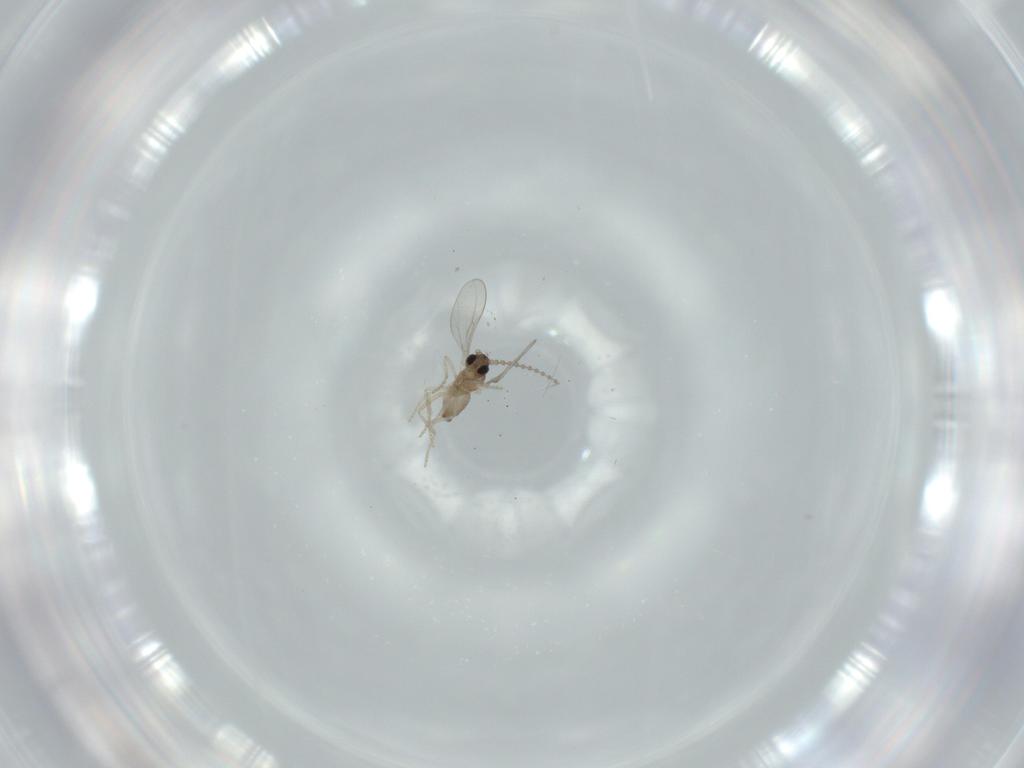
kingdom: Animalia
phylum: Arthropoda
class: Insecta
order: Diptera
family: Cecidomyiidae
